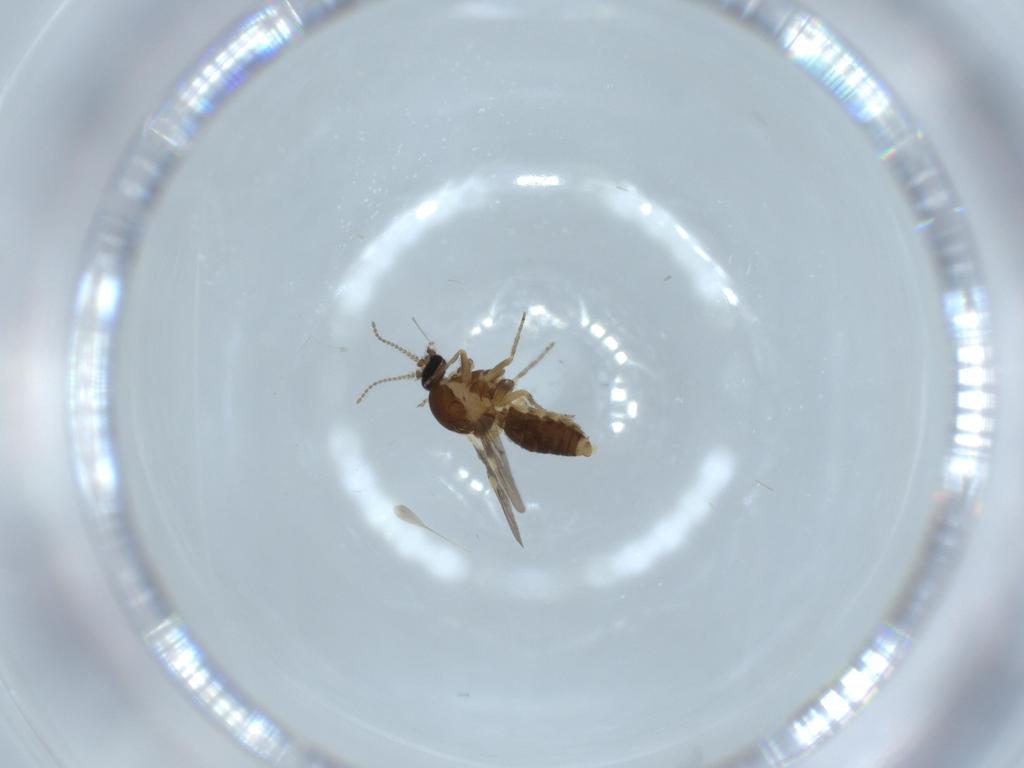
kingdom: Animalia
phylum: Arthropoda
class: Insecta
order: Diptera
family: Ceratopogonidae
